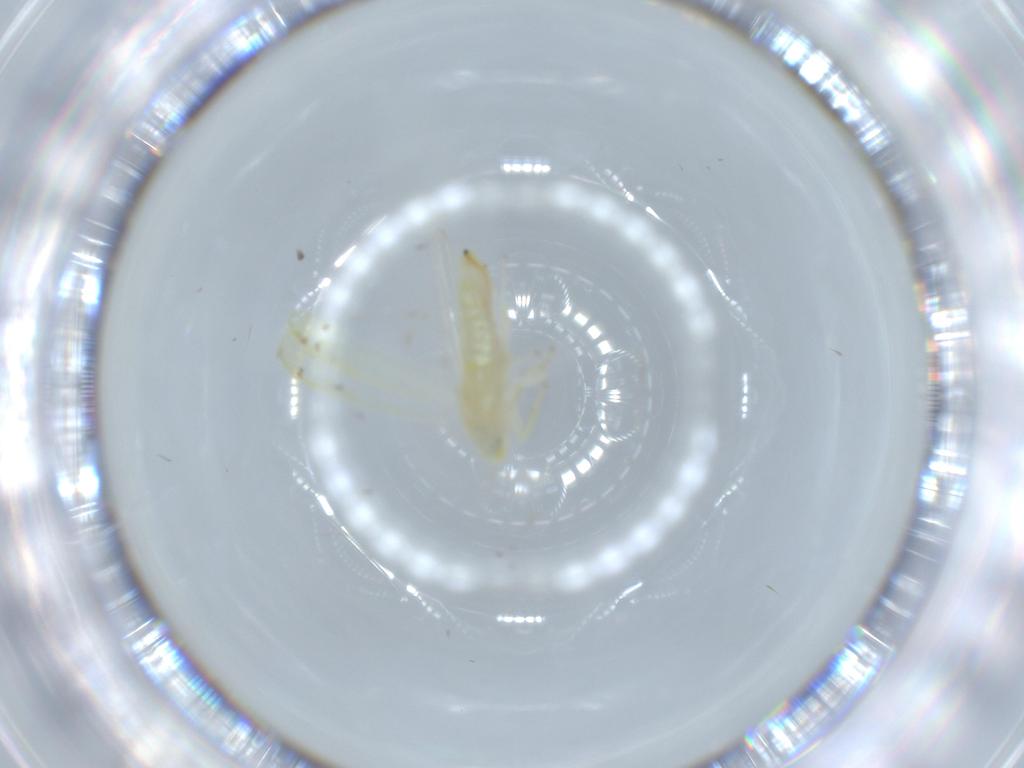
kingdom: Animalia
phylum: Arthropoda
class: Insecta
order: Hemiptera
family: Cicadellidae
